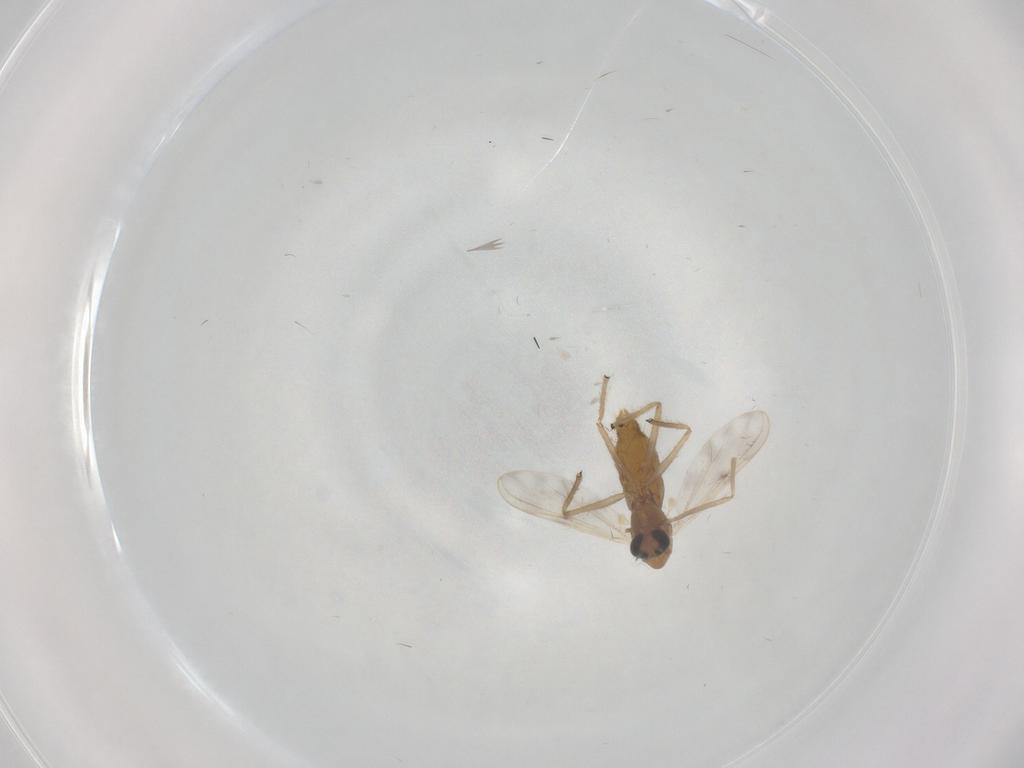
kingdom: Animalia
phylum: Arthropoda
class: Insecta
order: Diptera
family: Chironomidae
